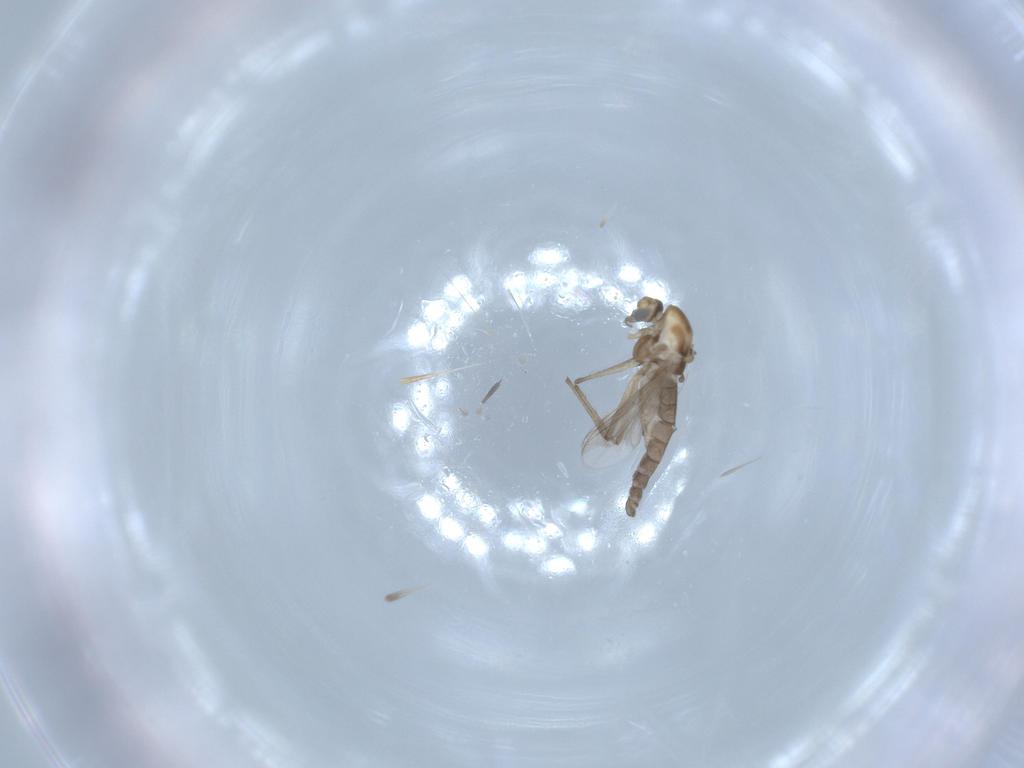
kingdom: Animalia
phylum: Arthropoda
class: Insecta
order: Diptera
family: Chironomidae
